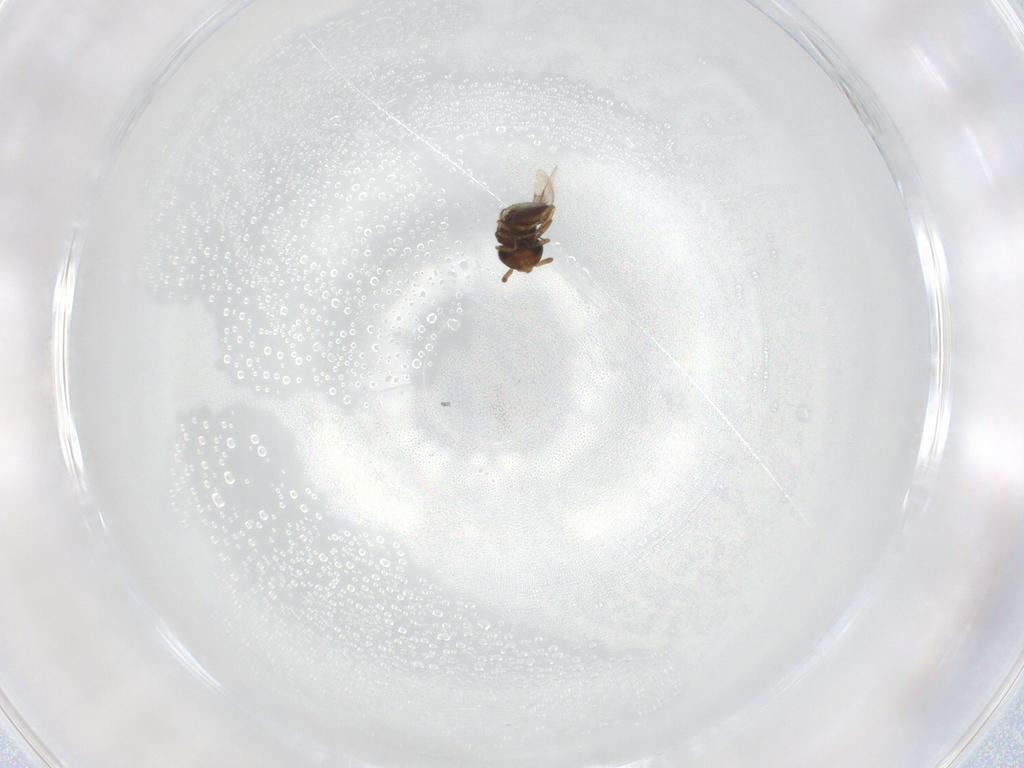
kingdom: Animalia
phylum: Arthropoda
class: Insecta
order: Hymenoptera
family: Scelionidae
